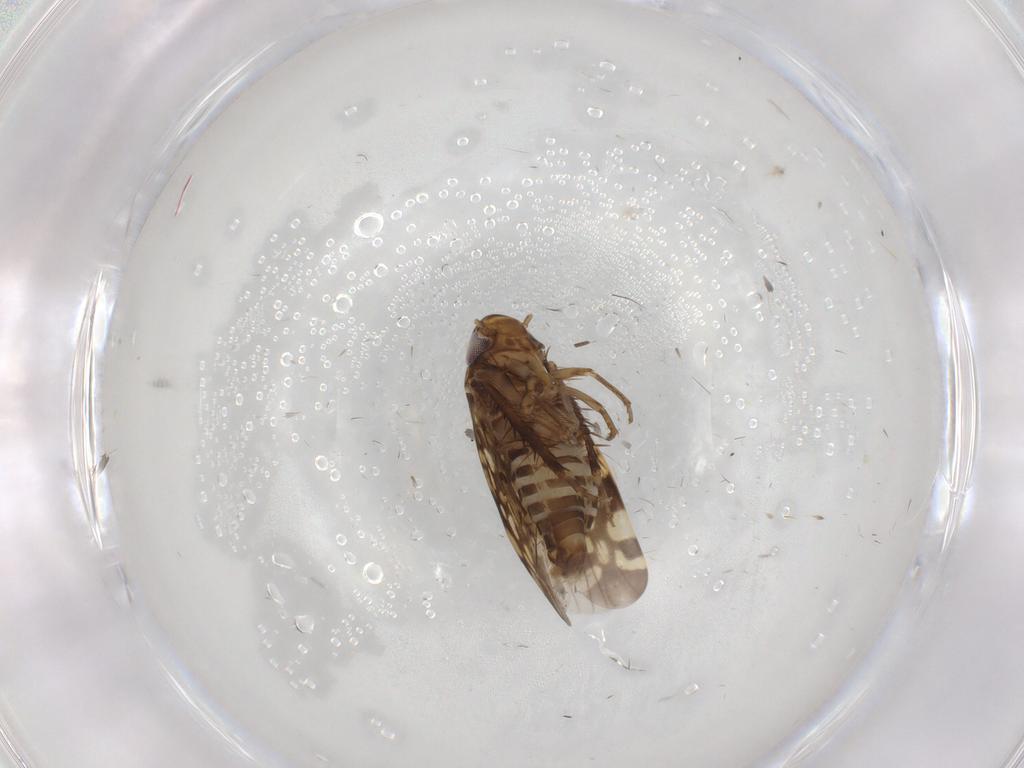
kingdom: Animalia
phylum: Arthropoda
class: Insecta
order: Hemiptera
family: Cicadellidae
